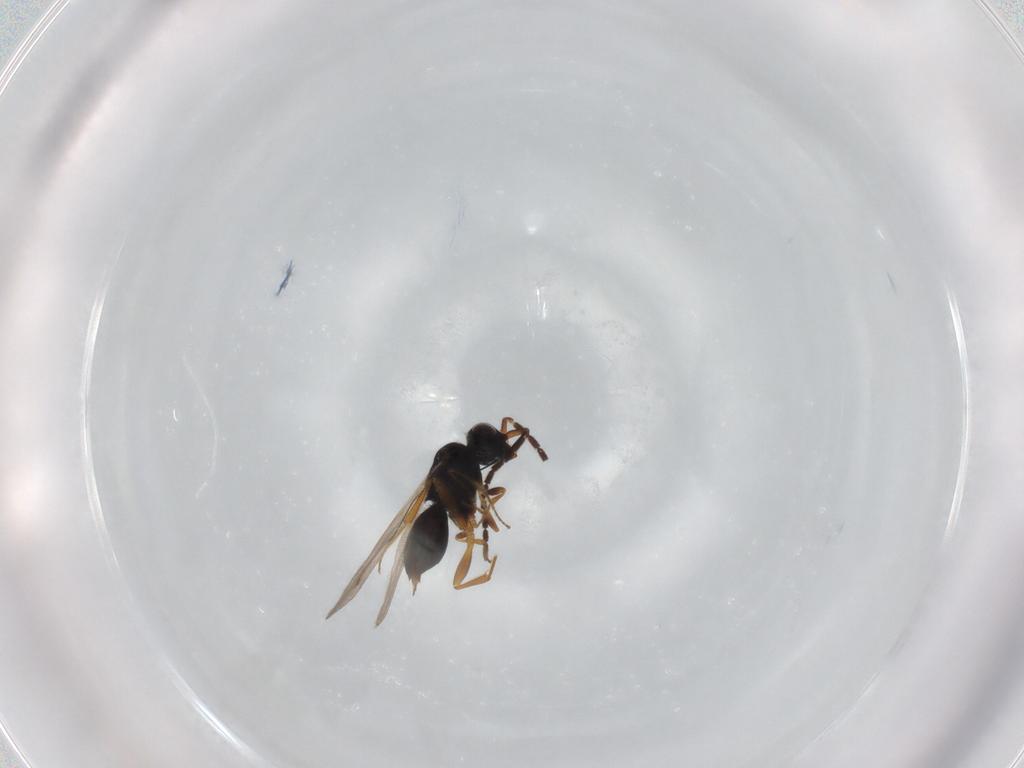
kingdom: Animalia
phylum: Arthropoda
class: Insecta
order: Hymenoptera
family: Ceraphronidae
